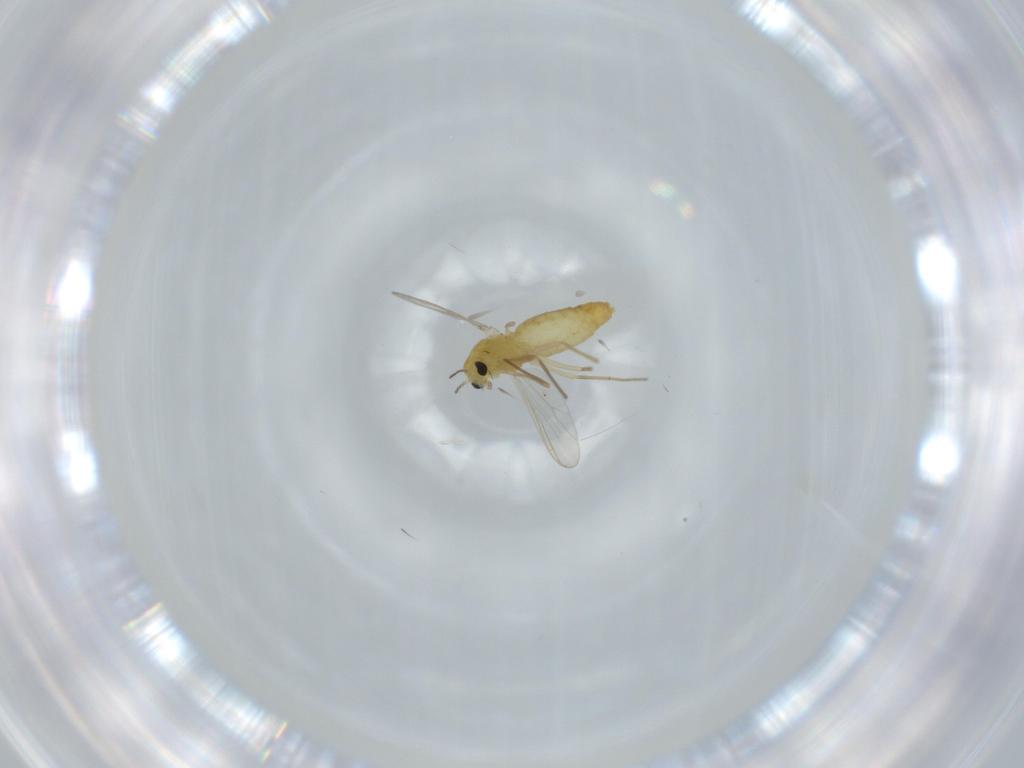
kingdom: Animalia
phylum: Arthropoda
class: Insecta
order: Diptera
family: Chironomidae
